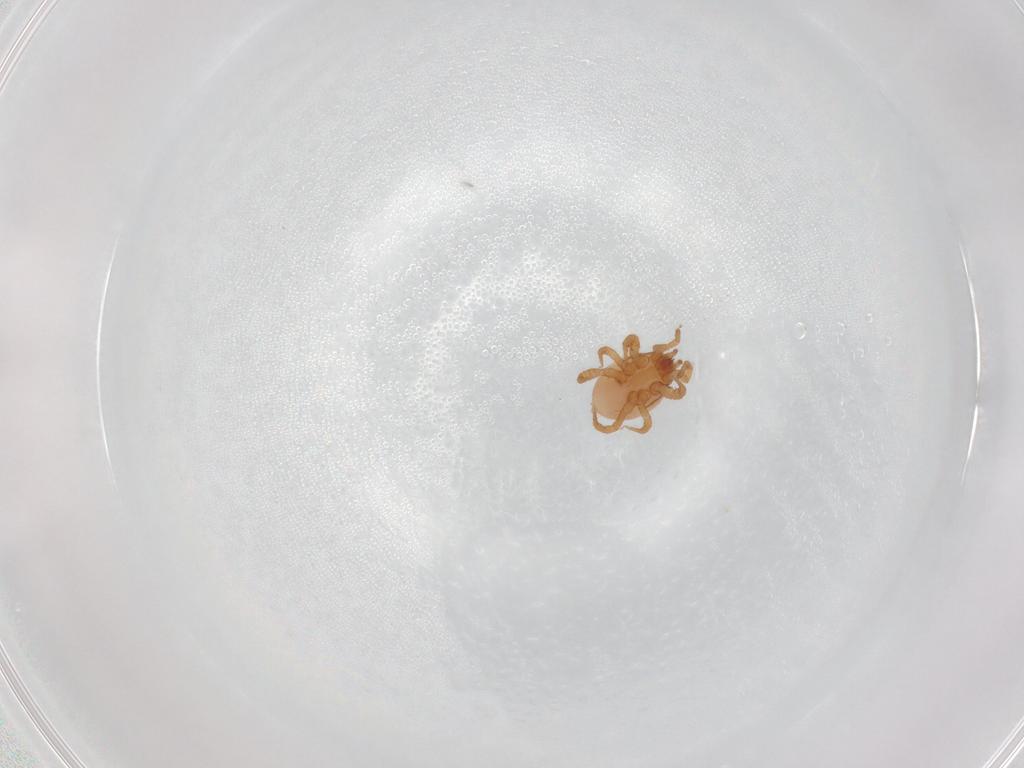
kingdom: Animalia
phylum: Arthropoda
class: Arachnida
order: Mesostigmata
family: Parasitidae
